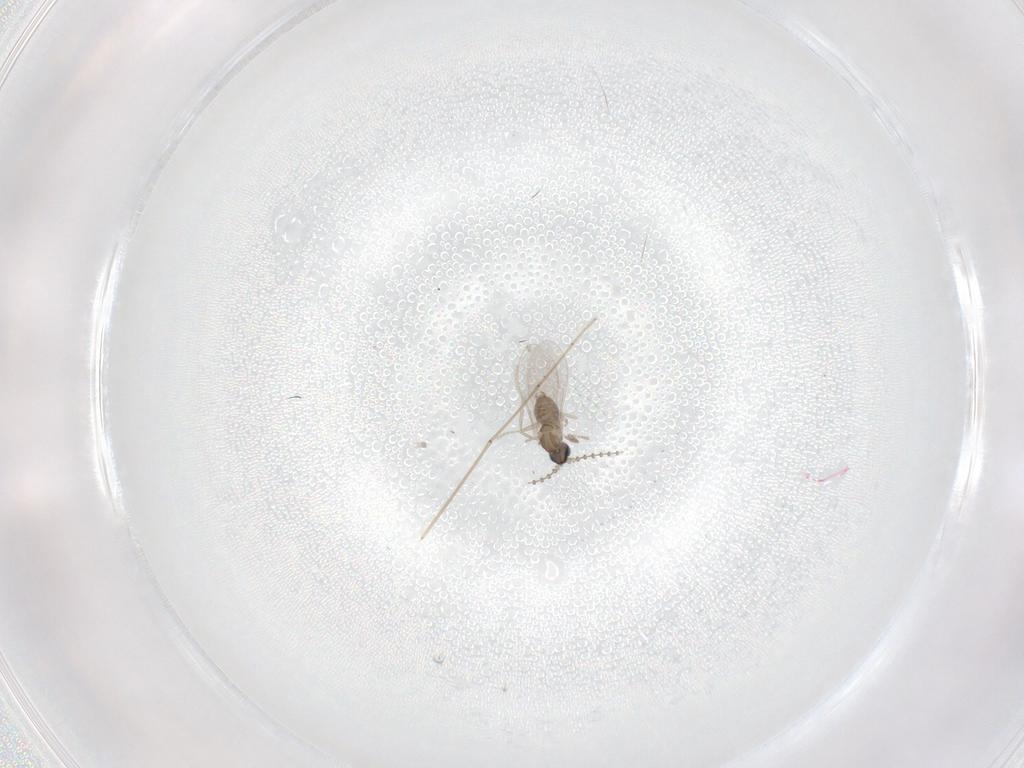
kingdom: Animalia
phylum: Arthropoda
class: Insecta
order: Diptera
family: Cecidomyiidae
